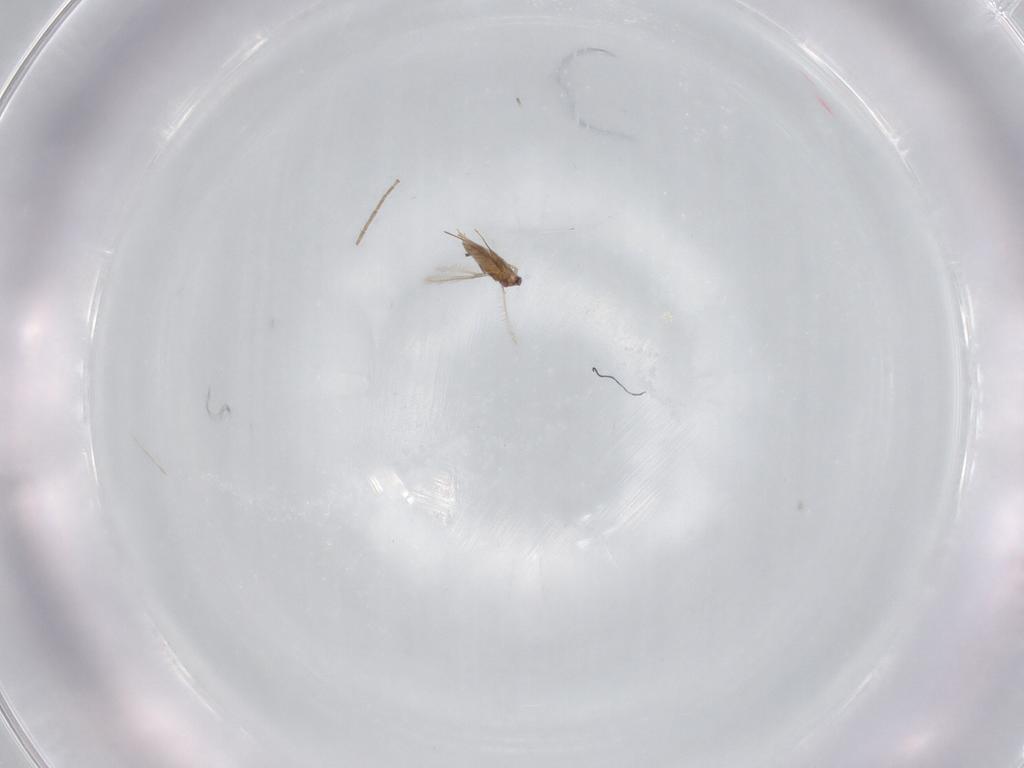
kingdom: Animalia
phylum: Arthropoda
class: Insecta
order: Diptera
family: Chironomidae
